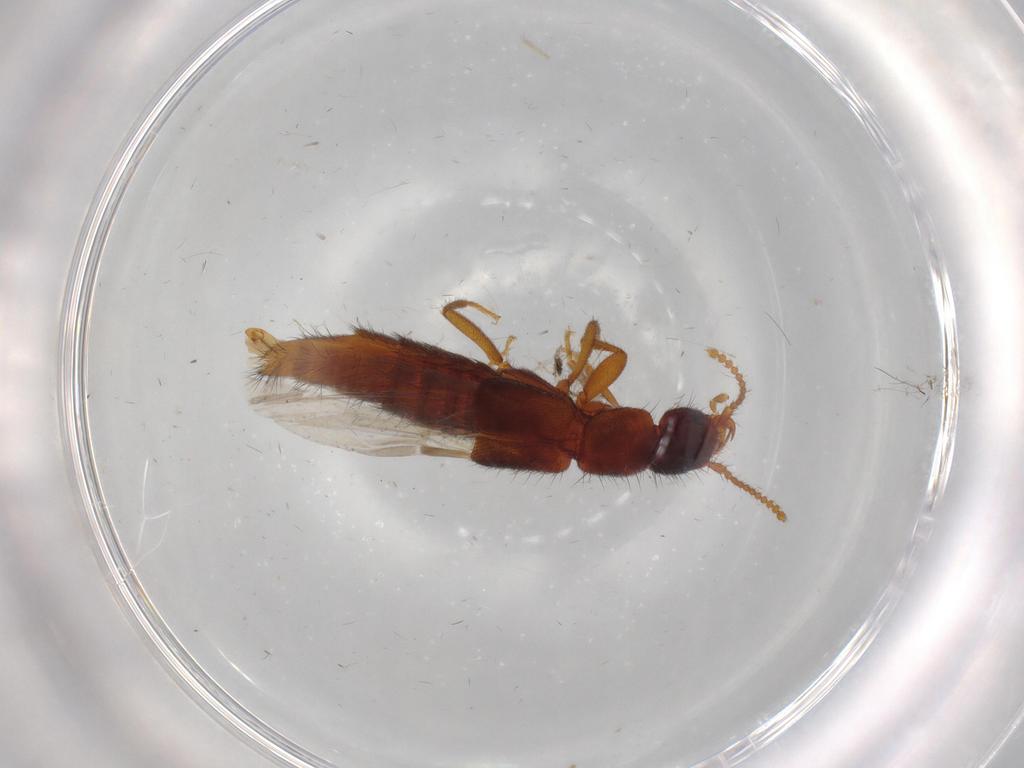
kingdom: Animalia
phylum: Arthropoda
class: Insecta
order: Coleoptera
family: Coccinellidae
